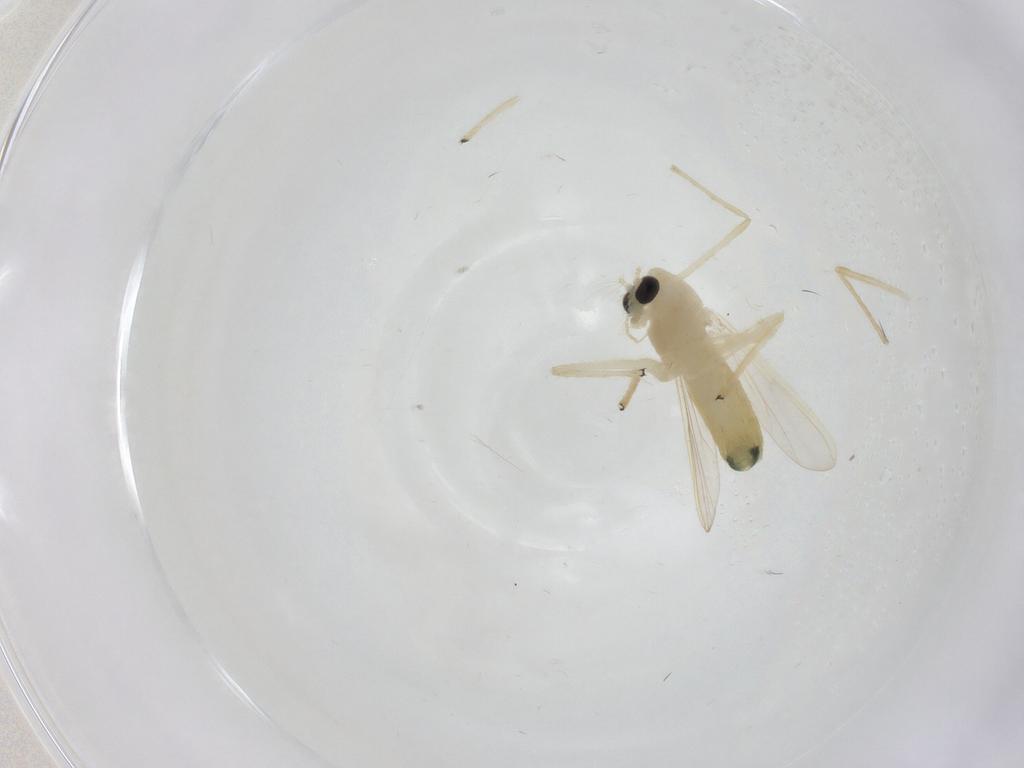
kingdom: Animalia
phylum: Arthropoda
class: Insecta
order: Diptera
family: Chironomidae
